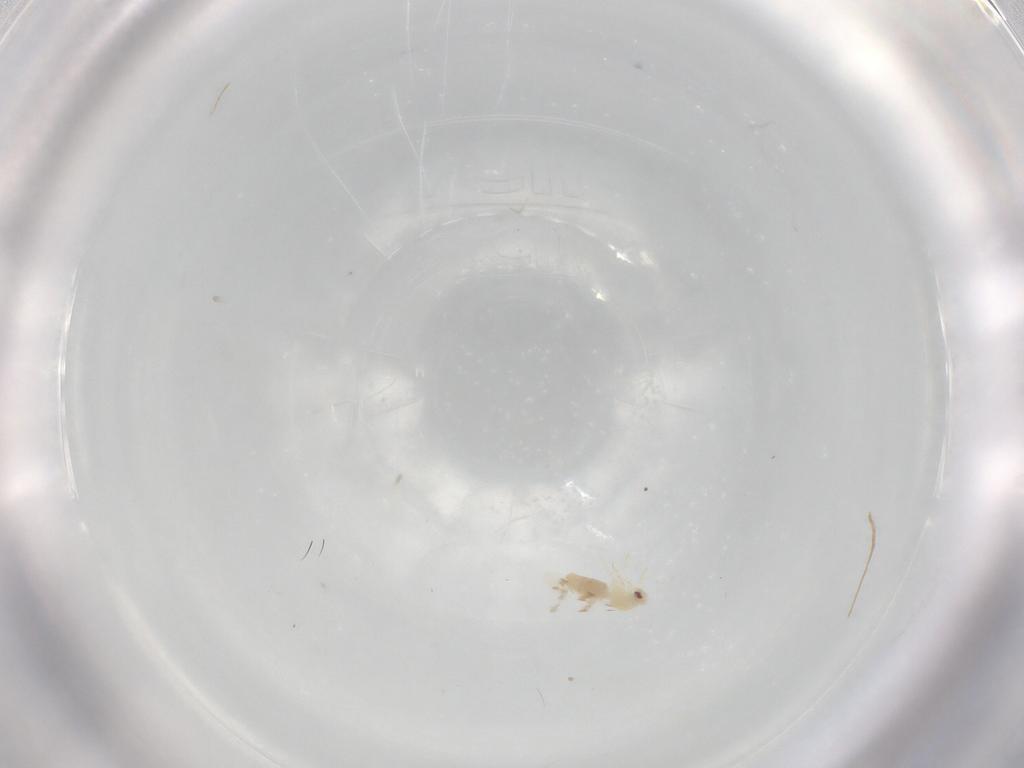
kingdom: Animalia
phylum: Arthropoda
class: Insecta
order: Hemiptera
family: Aleyrodidae
